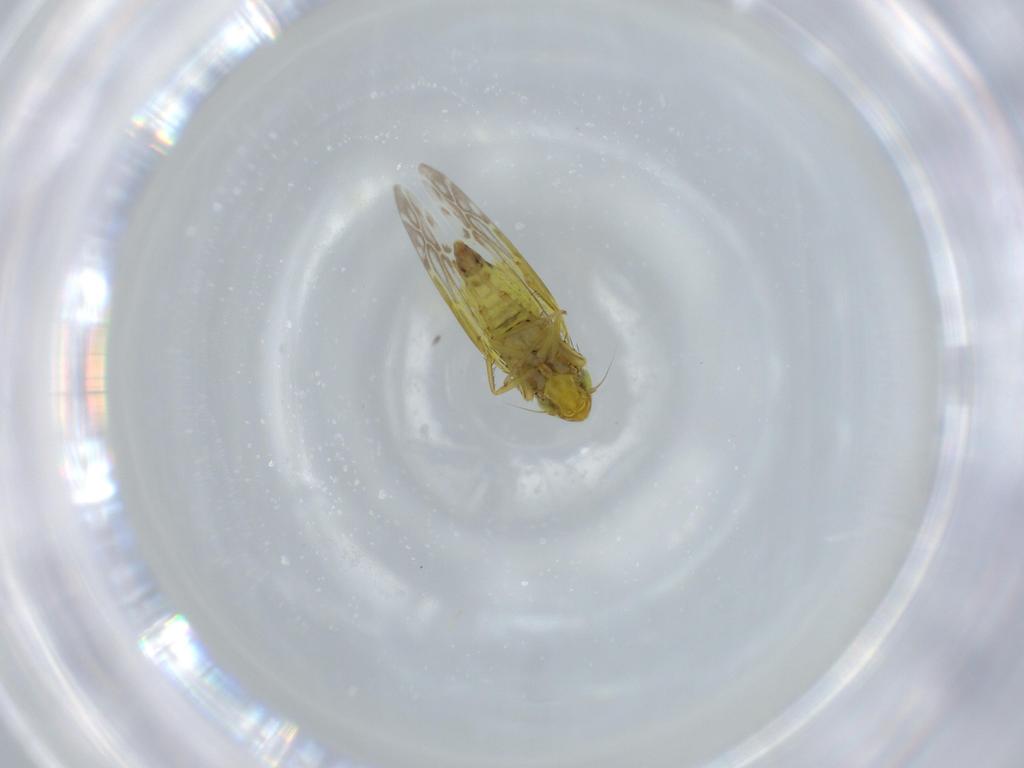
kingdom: Animalia
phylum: Arthropoda
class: Insecta
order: Hemiptera
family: Cicadellidae
